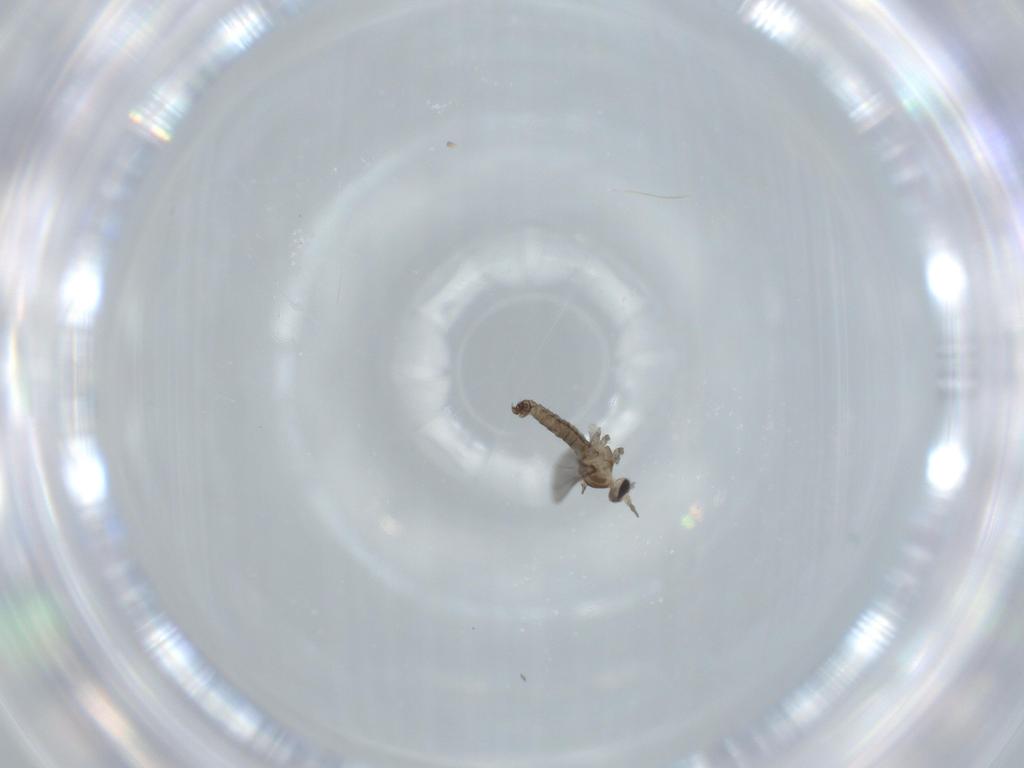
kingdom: Animalia
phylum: Arthropoda
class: Insecta
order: Diptera
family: Cecidomyiidae
